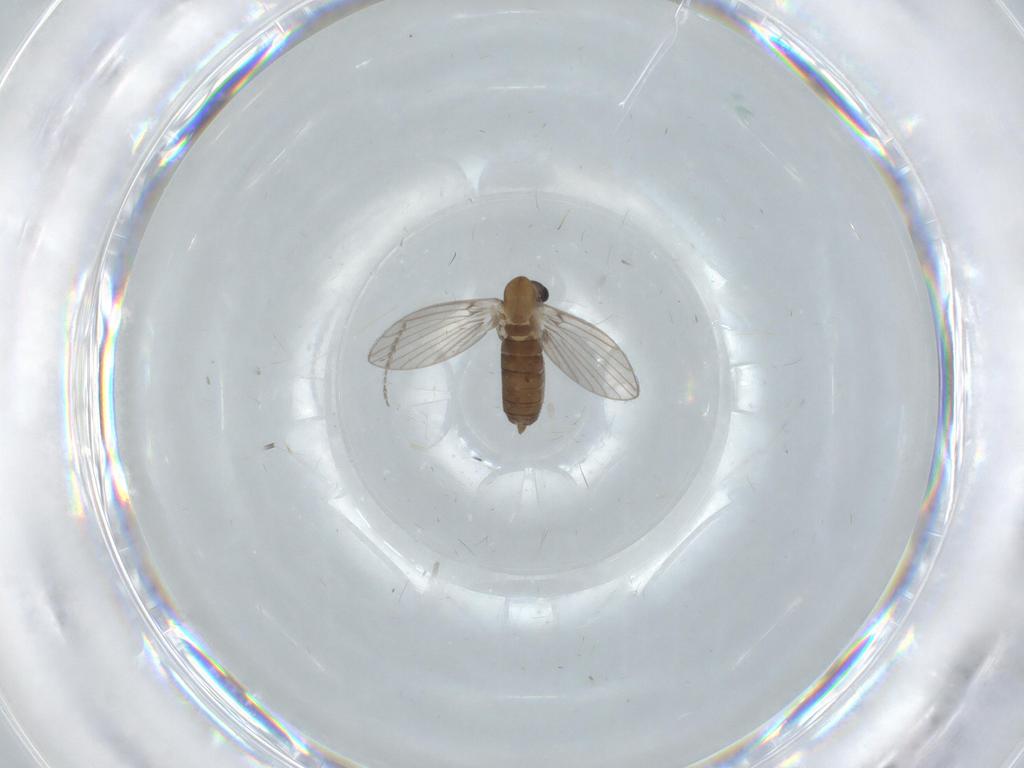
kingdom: Animalia
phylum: Arthropoda
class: Insecta
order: Diptera
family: Psychodidae
